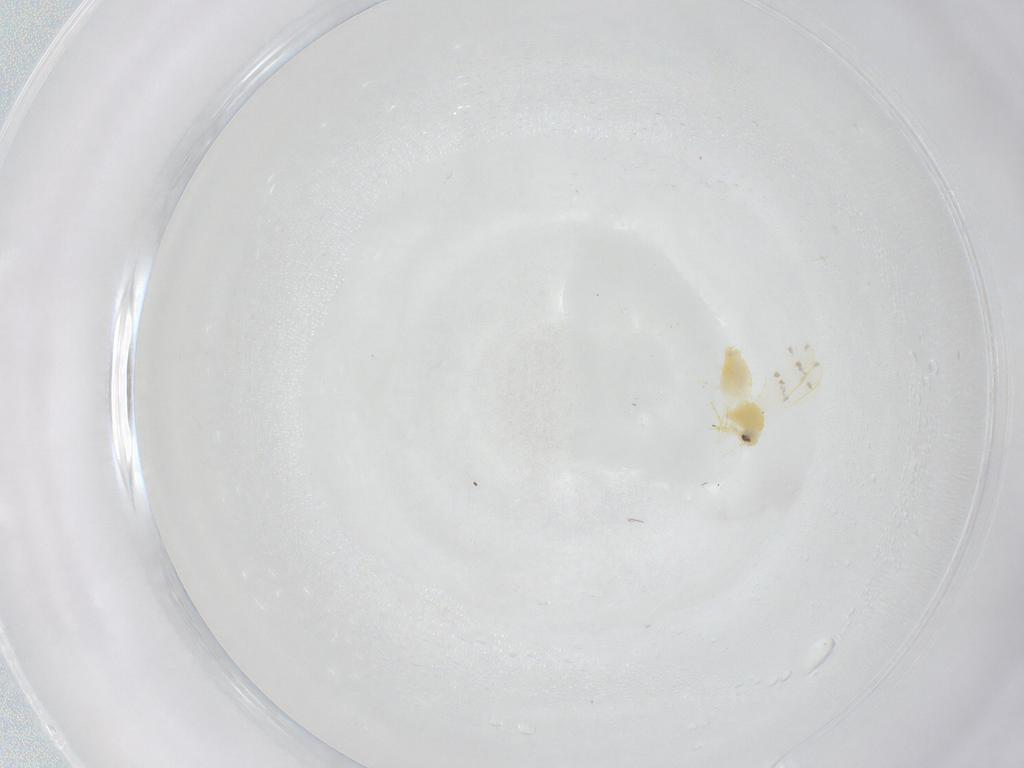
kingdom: Animalia
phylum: Arthropoda
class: Insecta
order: Hemiptera
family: Aleyrodidae
